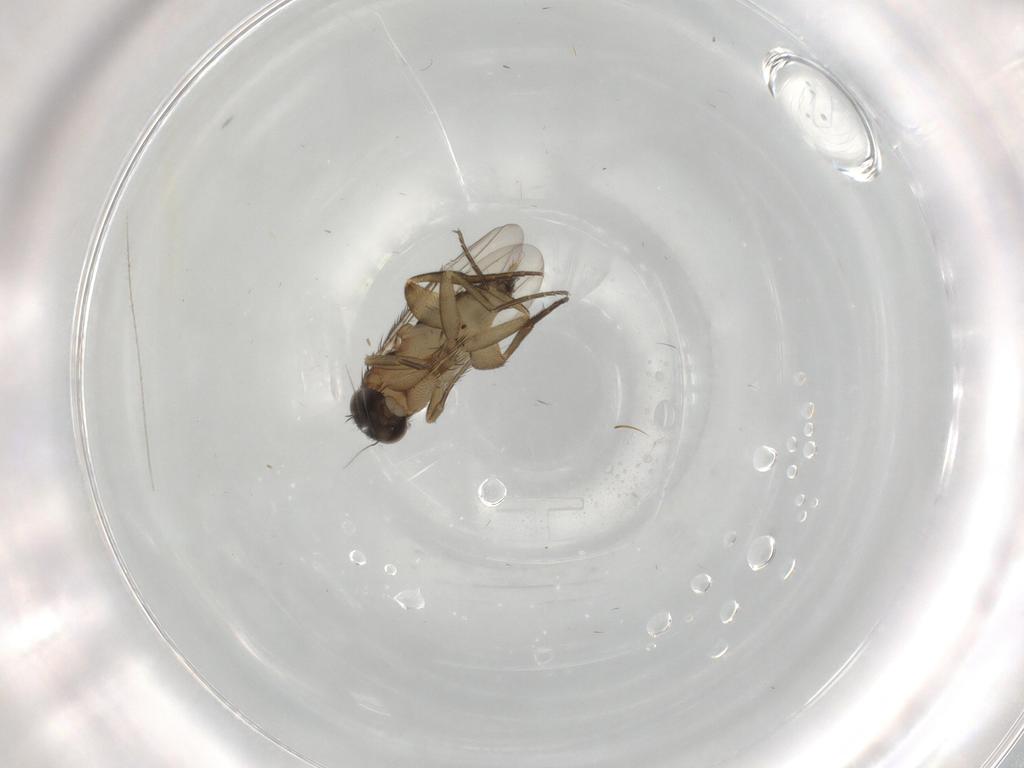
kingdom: Animalia
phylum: Arthropoda
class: Insecta
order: Diptera
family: Phoridae
